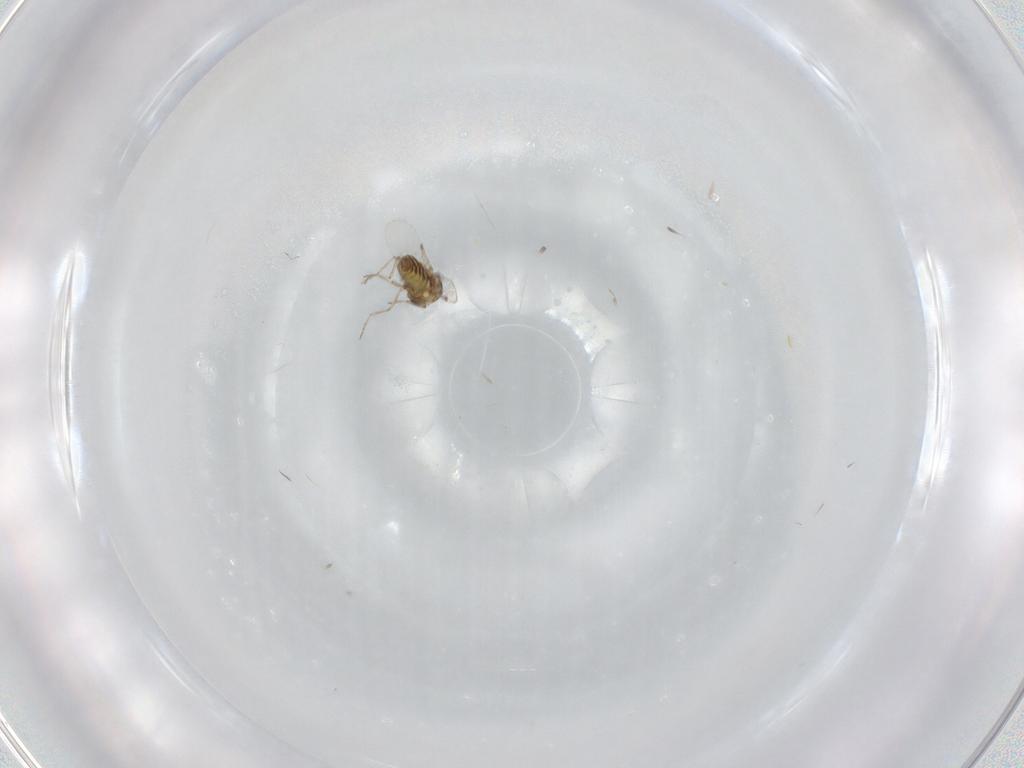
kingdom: Animalia
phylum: Arthropoda
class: Insecta
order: Diptera
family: Ceratopogonidae
